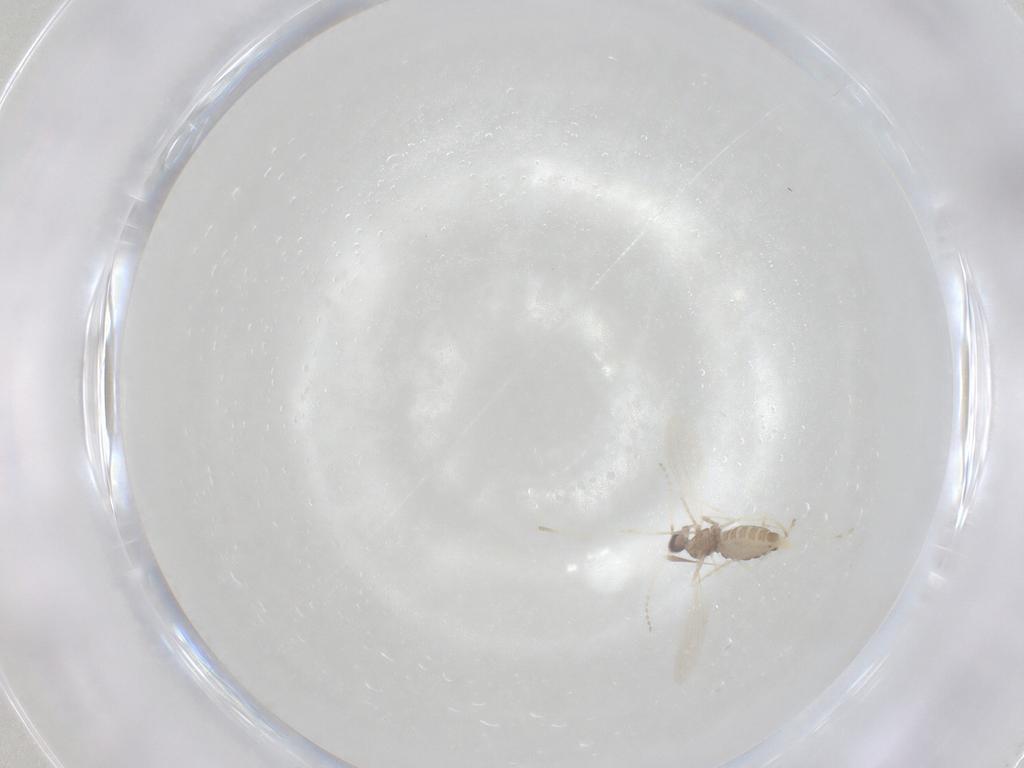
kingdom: Animalia
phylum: Arthropoda
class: Insecta
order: Diptera
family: Cecidomyiidae
